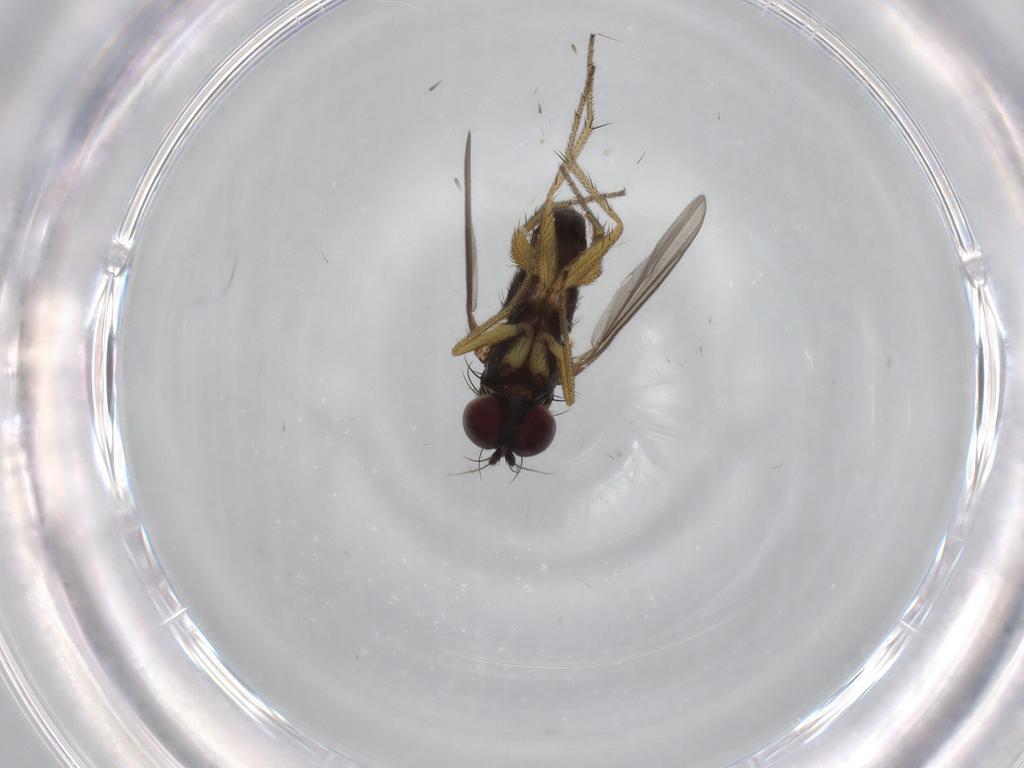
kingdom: Animalia
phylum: Arthropoda
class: Insecta
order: Diptera
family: Dolichopodidae
